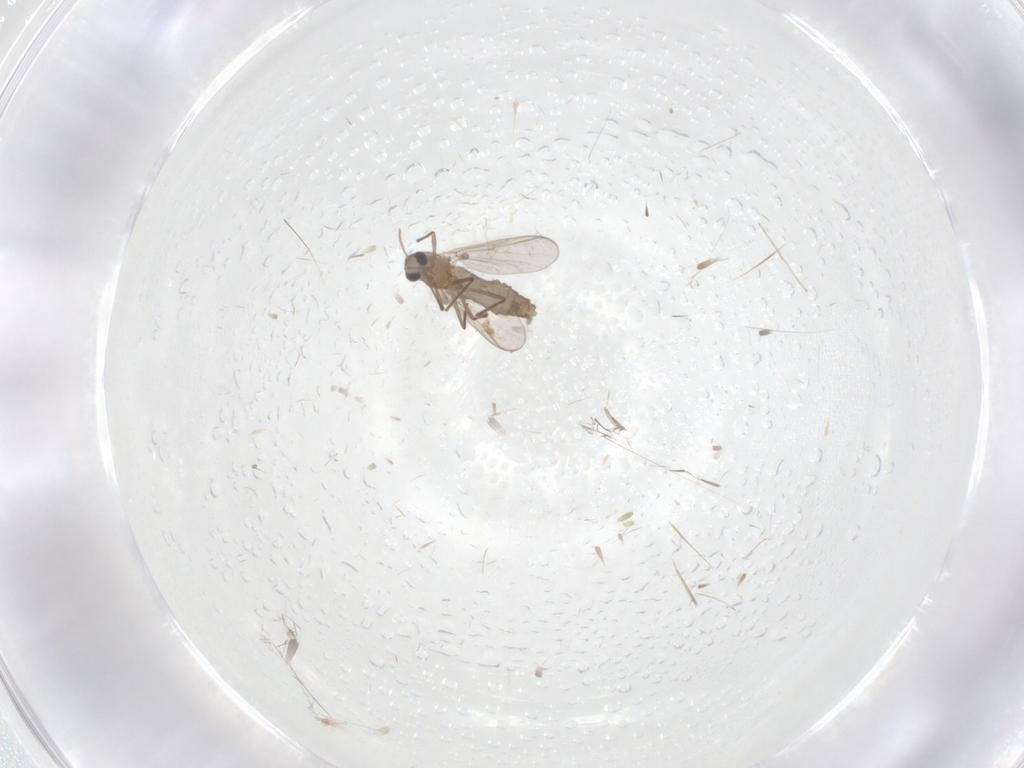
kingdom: Animalia
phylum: Arthropoda
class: Insecta
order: Diptera
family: Chironomidae
